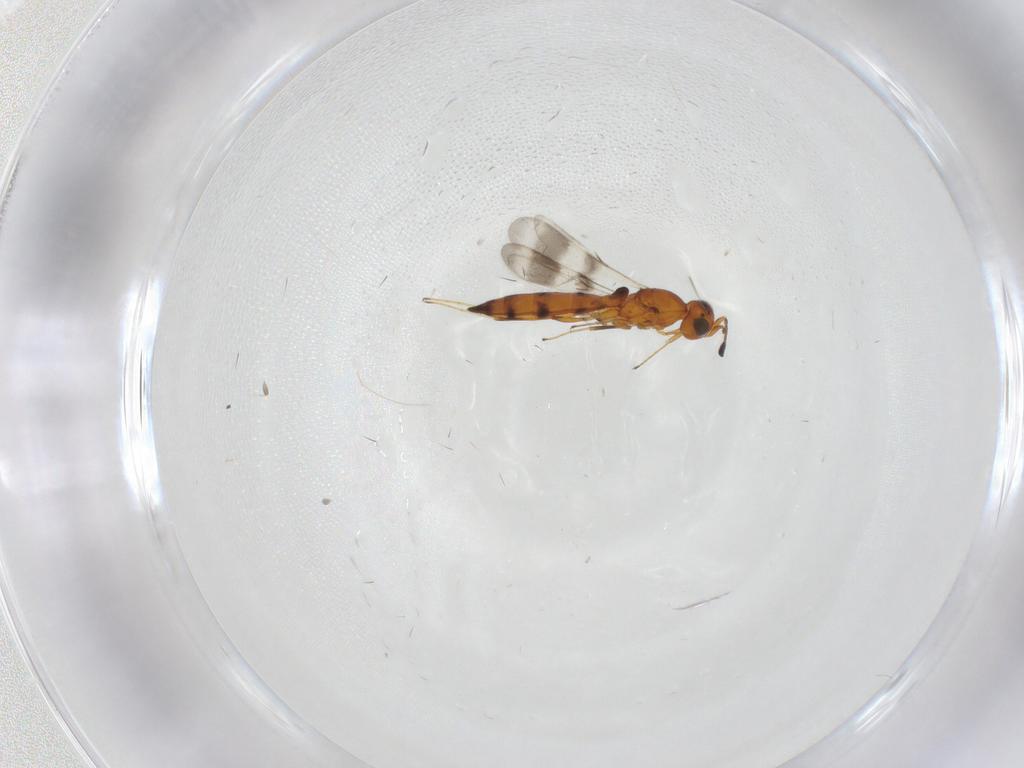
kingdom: Animalia
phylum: Arthropoda
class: Insecta
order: Hymenoptera
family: Scelionidae
